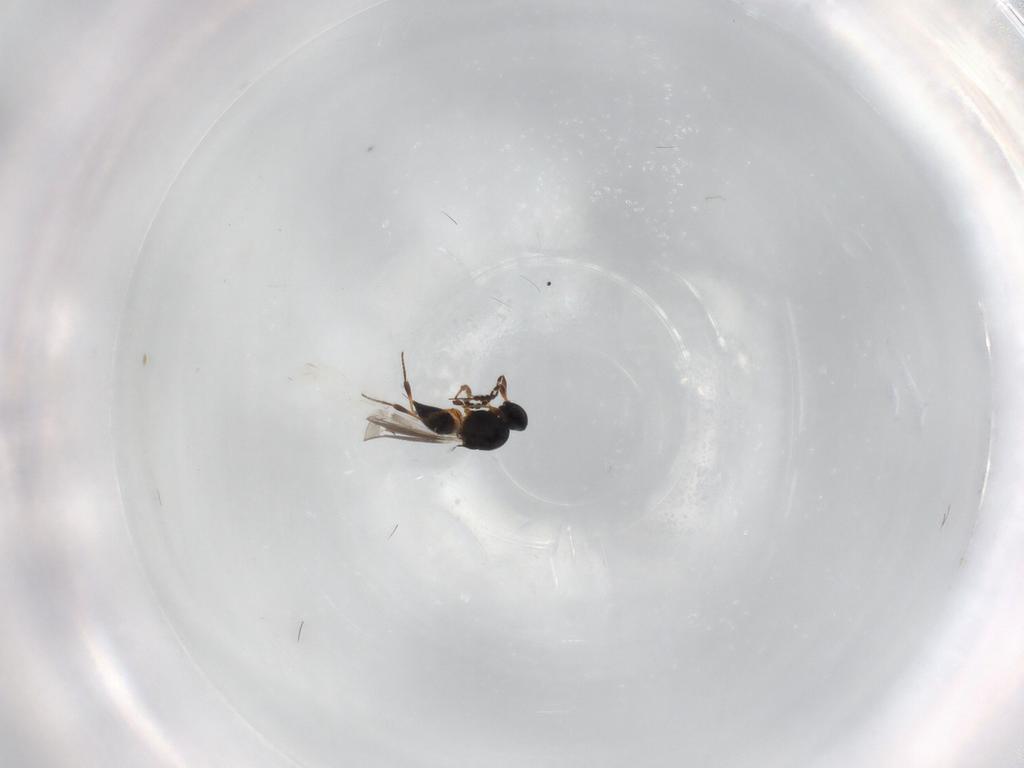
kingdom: Animalia
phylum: Arthropoda
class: Insecta
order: Hymenoptera
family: Platygastridae
